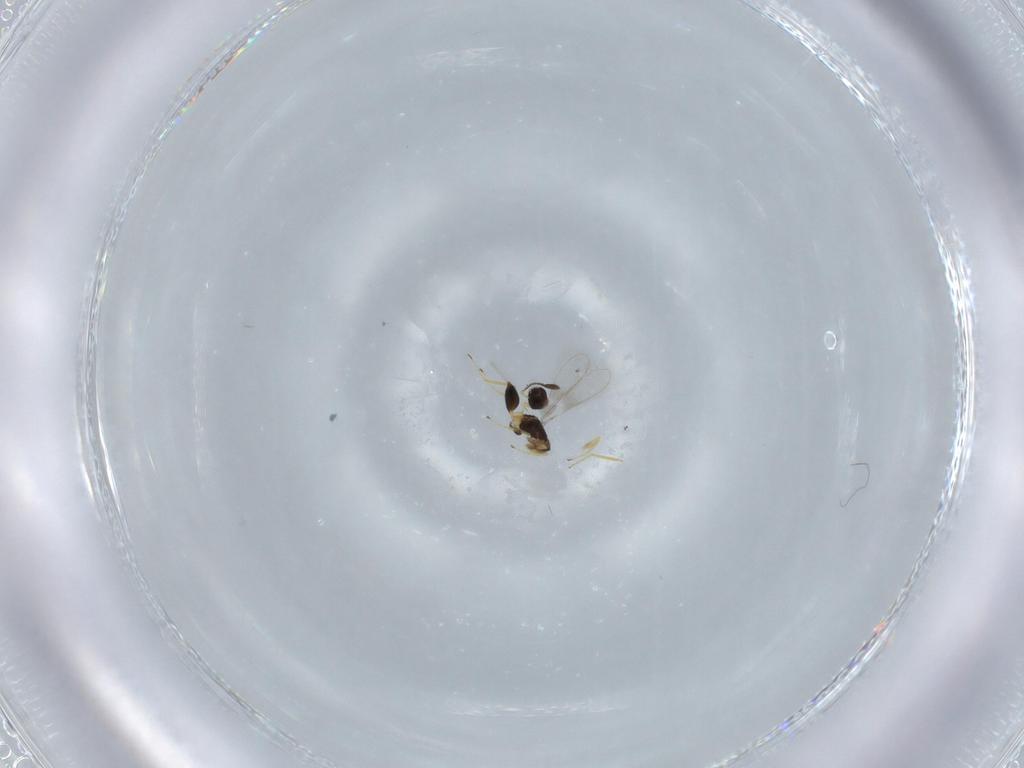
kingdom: Animalia
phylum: Arthropoda
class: Insecta
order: Hymenoptera
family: Mymaridae
